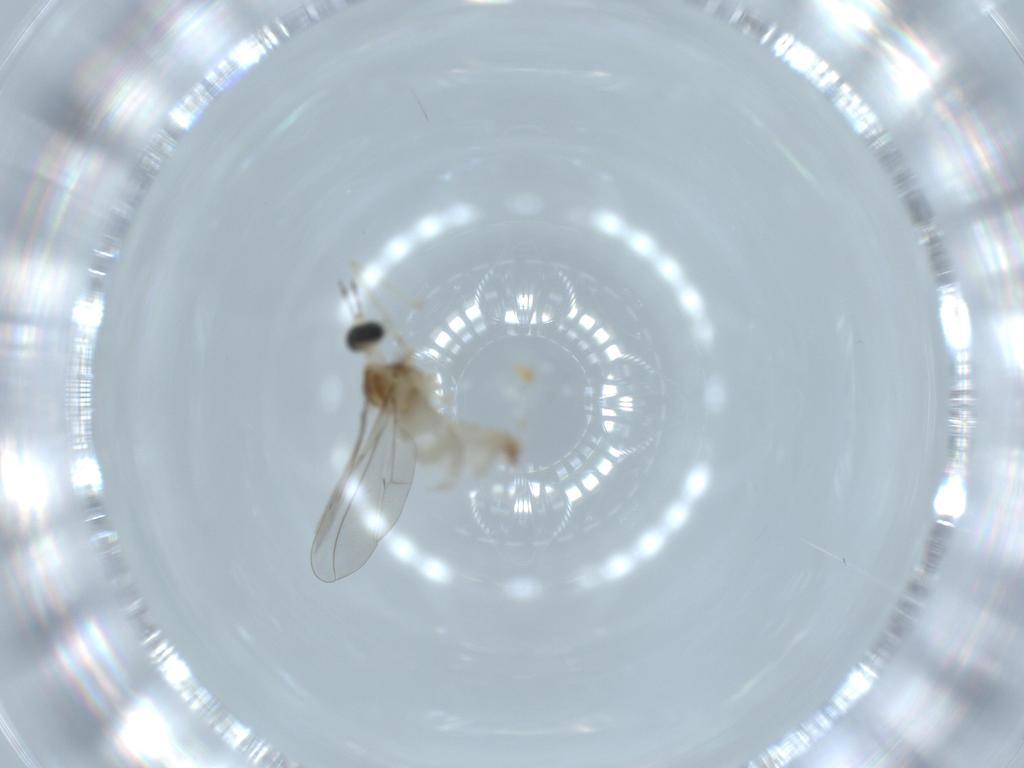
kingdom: Animalia
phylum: Arthropoda
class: Insecta
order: Diptera
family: Cecidomyiidae
